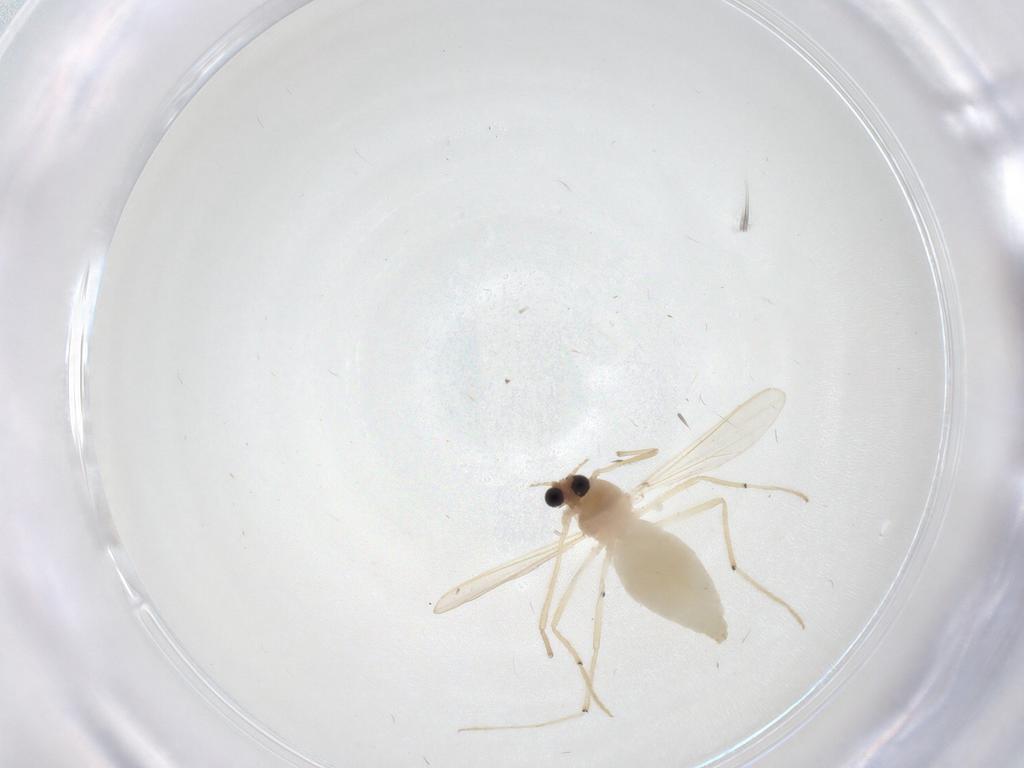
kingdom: Animalia
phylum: Arthropoda
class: Insecta
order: Diptera
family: Chironomidae
